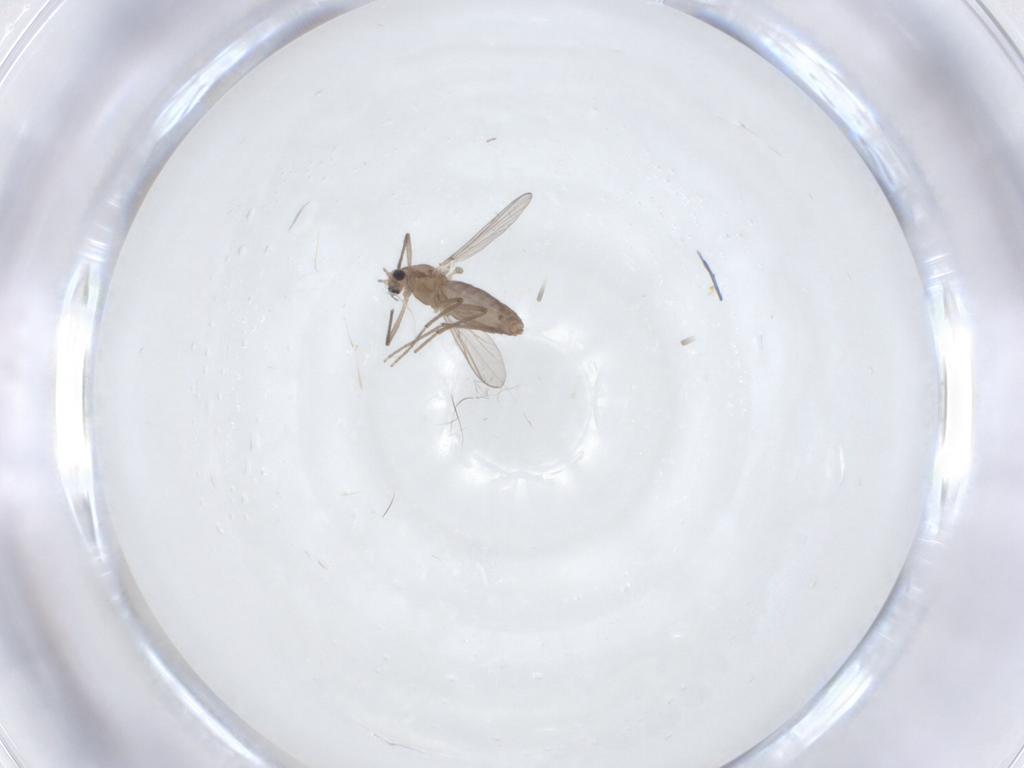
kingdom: Animalia
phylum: Arthropoda
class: Insecta
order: Diptera
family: Chironomidae
